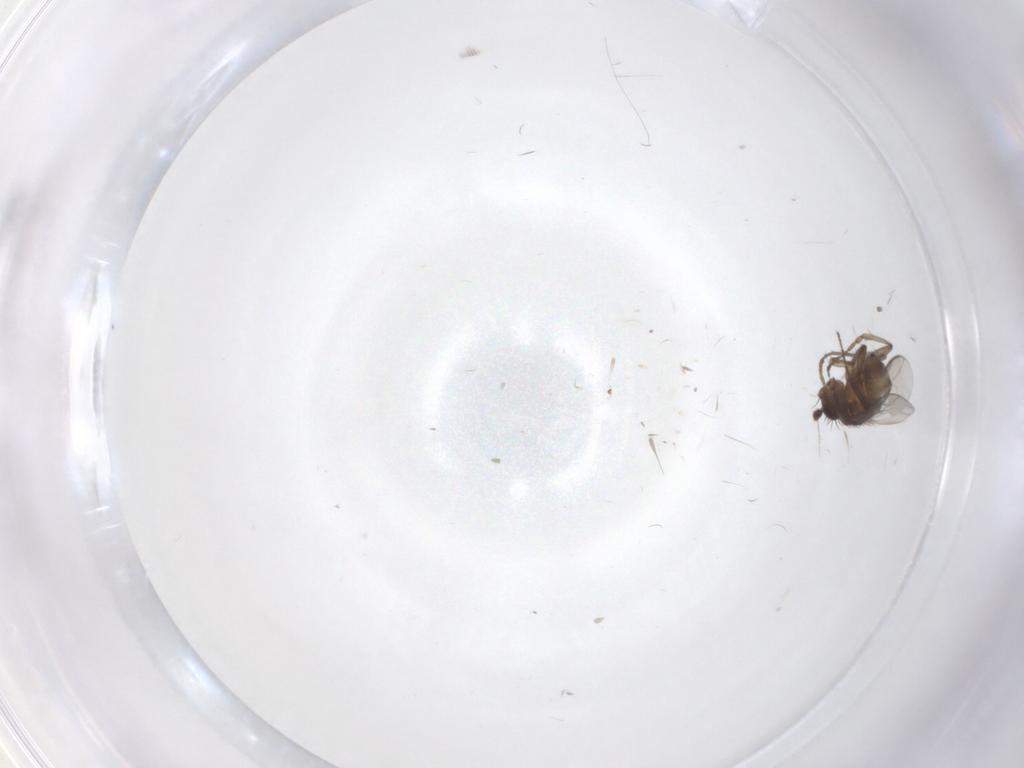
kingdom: Animalia
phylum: Arthropoda
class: Insecta
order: Diptera
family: Sphaeroceridae
